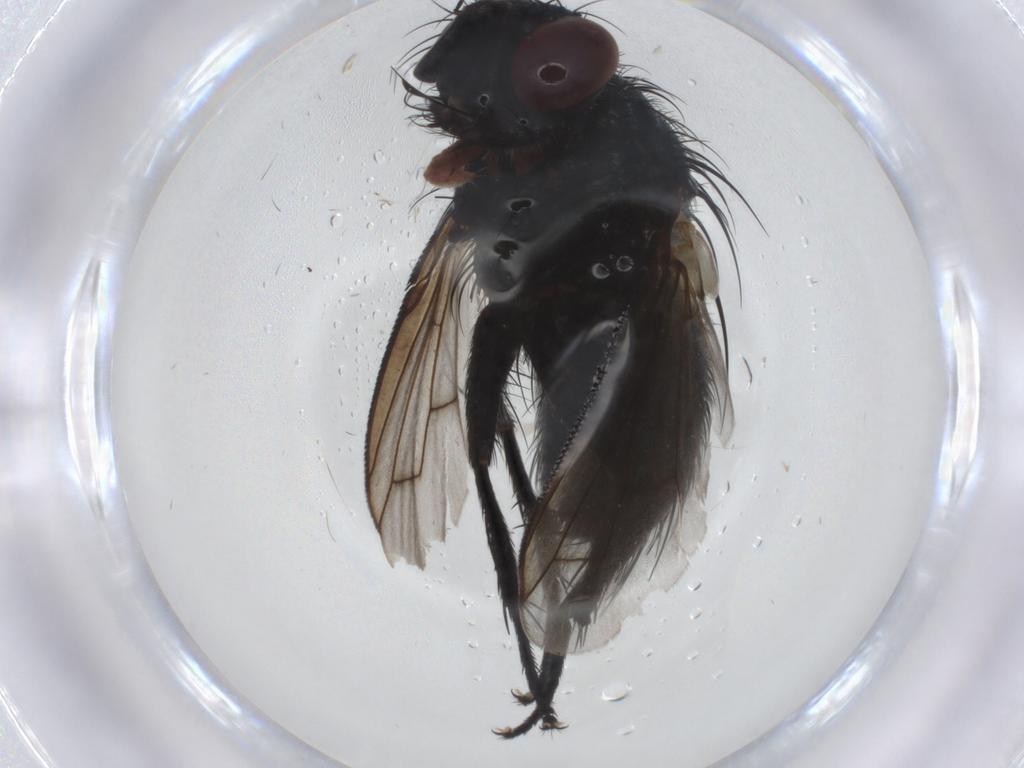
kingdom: Animalia
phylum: Arthropoda
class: Insecta
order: Diptera
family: Tachinidae
